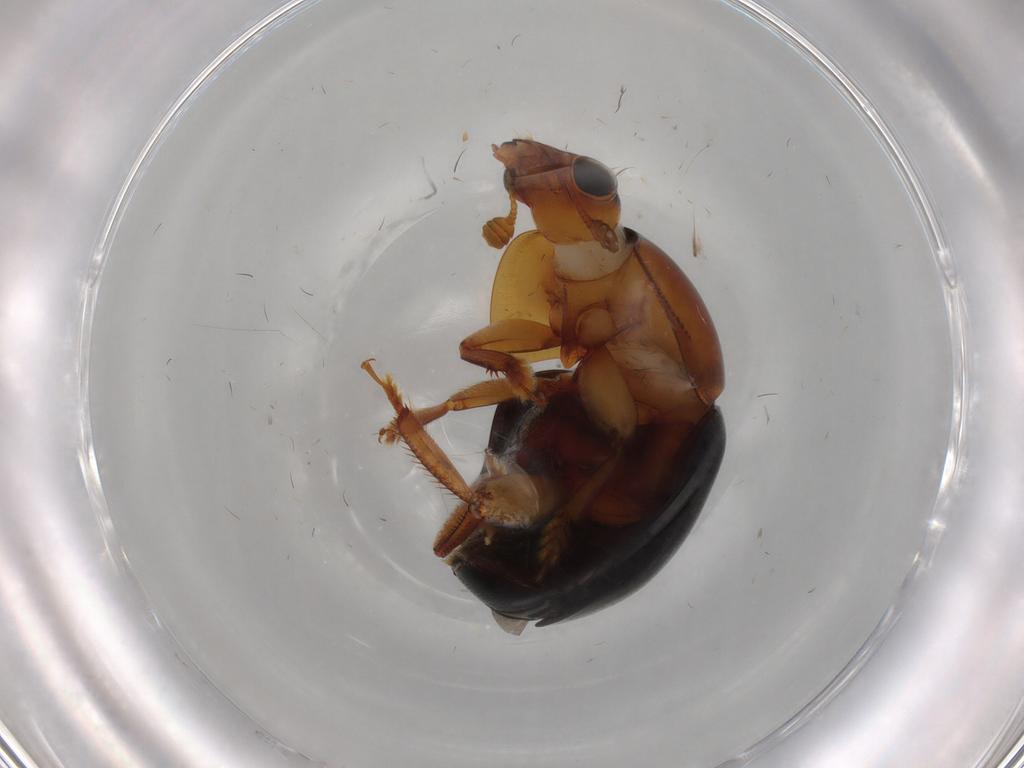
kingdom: Animalia
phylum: Arthropoda
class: Insecta
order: Coleoptera
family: Nitidulidae
